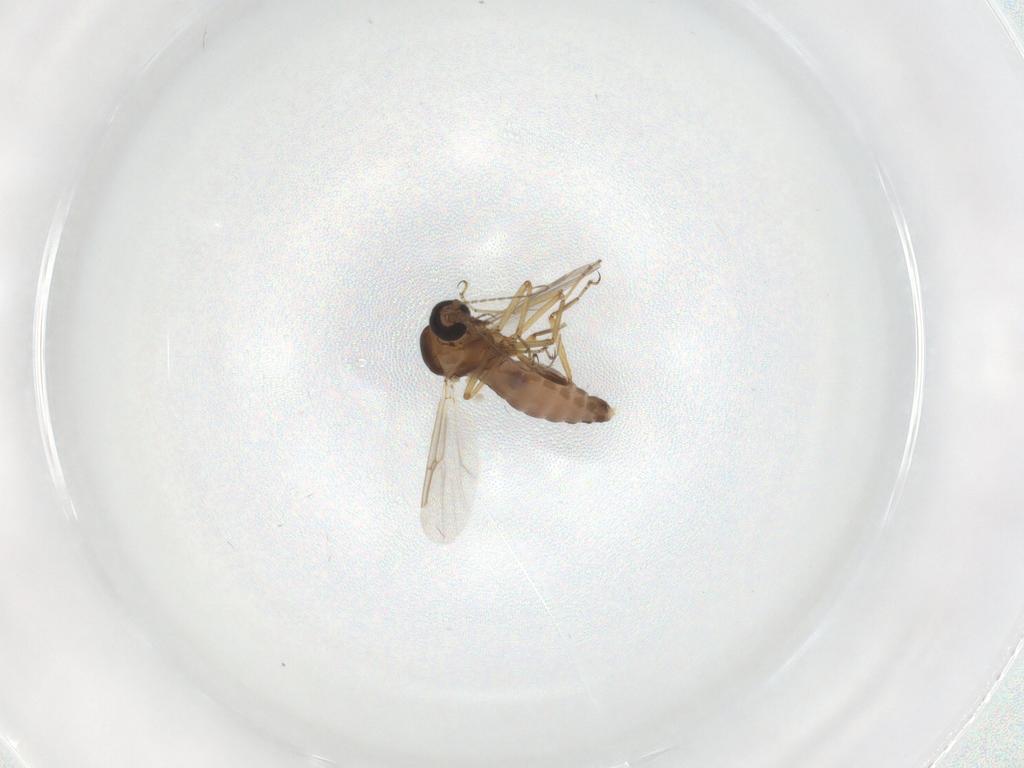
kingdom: Animalia
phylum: Arthropoda
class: Insecta
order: Diptera
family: Ceratopogonidae
